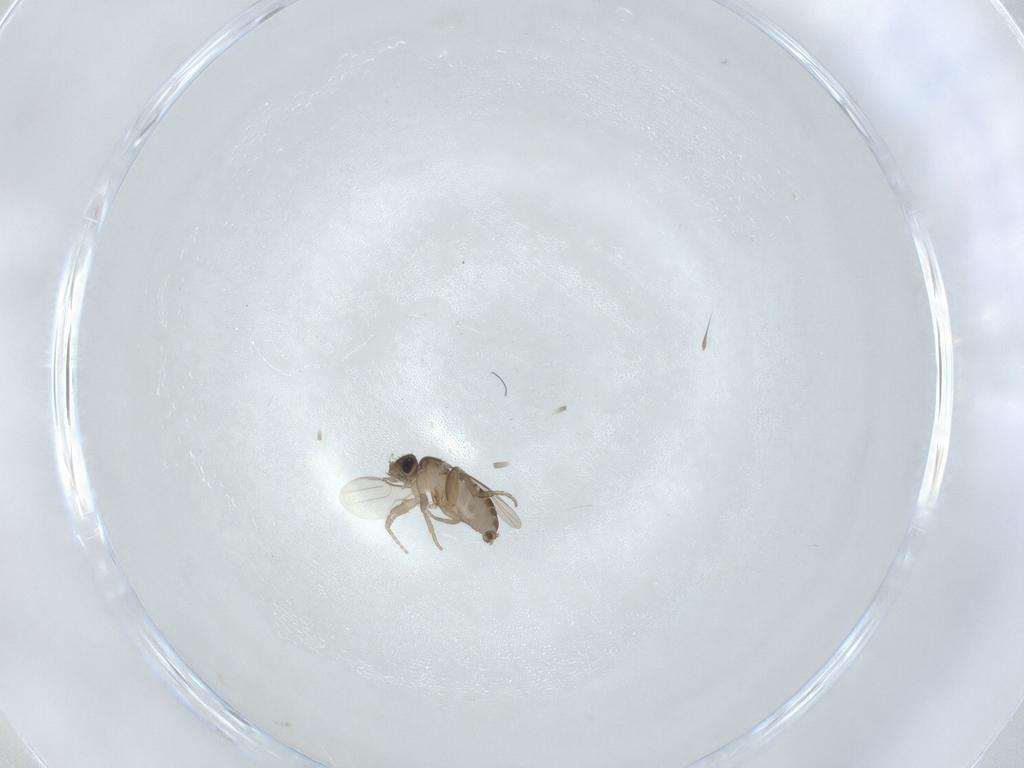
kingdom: Animalia
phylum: Arthropoda
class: Insecta
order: Diptera
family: Phoridae
